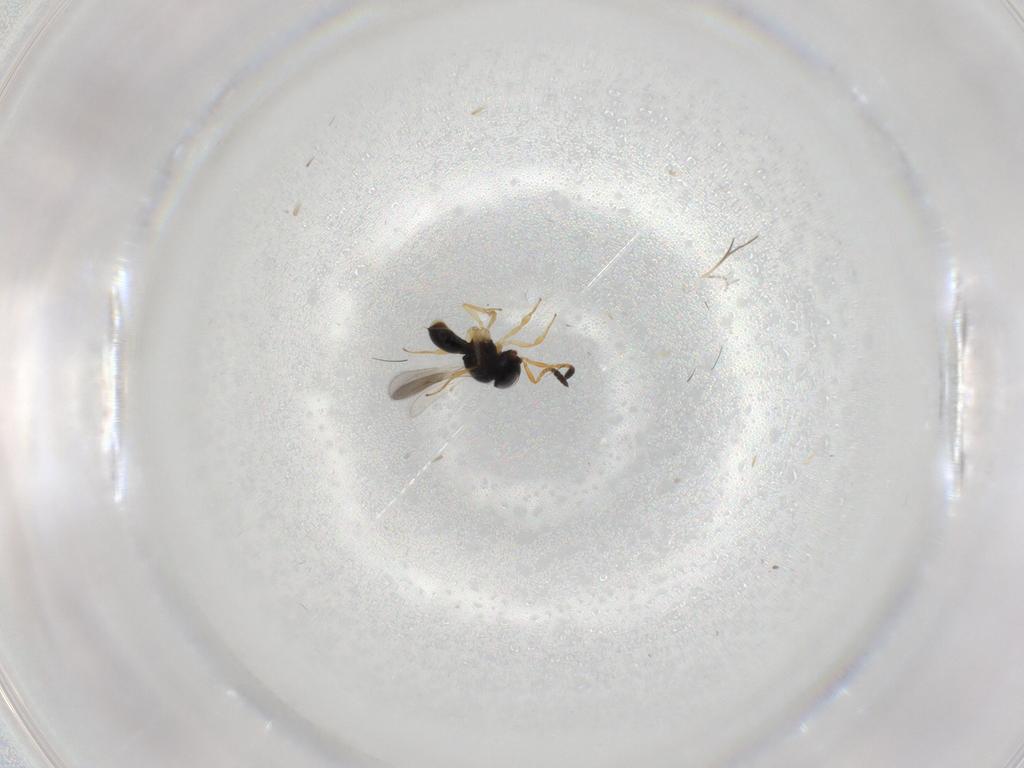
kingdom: Animalia
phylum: Arthropoda
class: Insecta
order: Hymenoptera
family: Scelionidae
